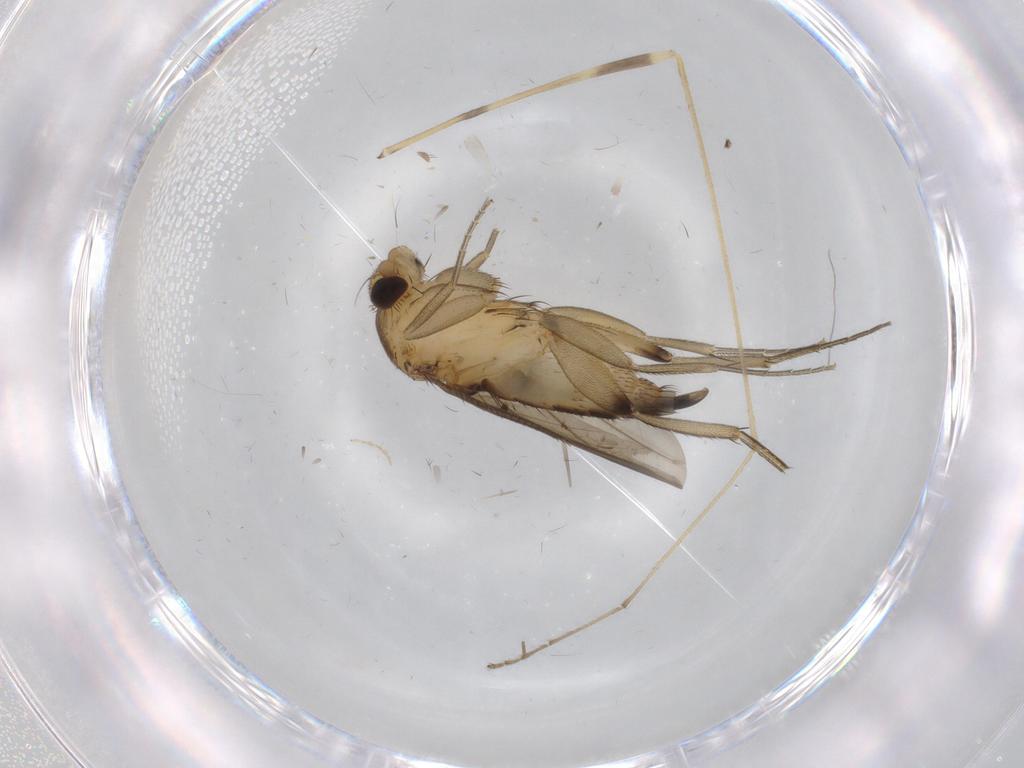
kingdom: Animalia
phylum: Arthropoda
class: Insecta
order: Diptera
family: Phoridae
